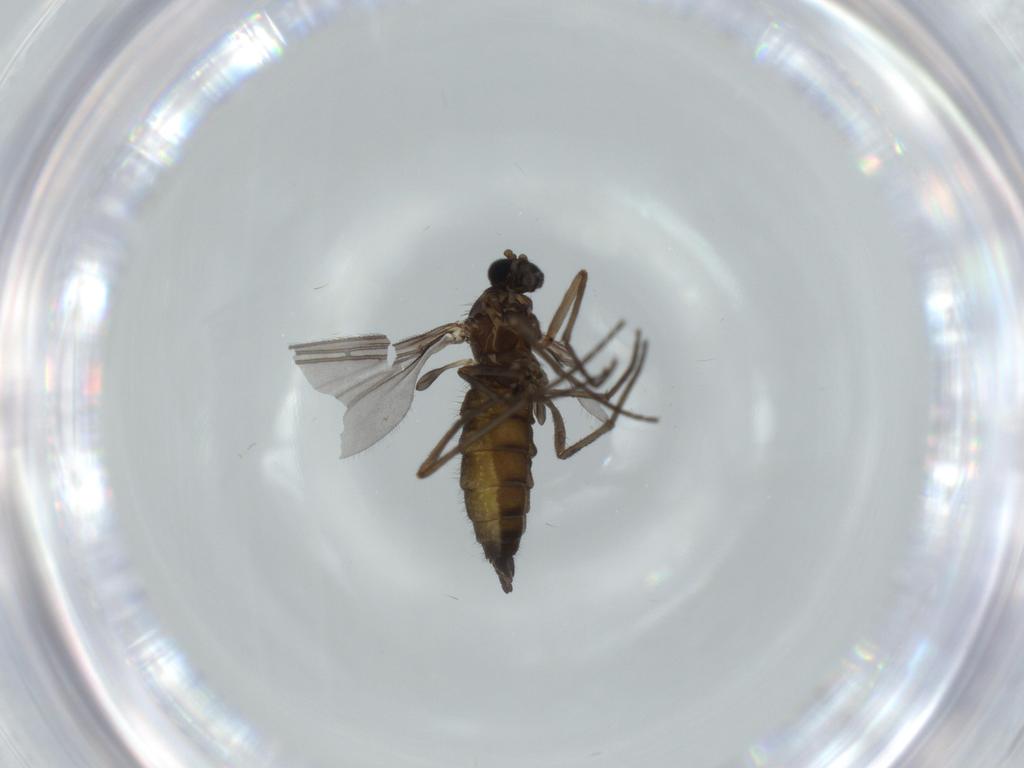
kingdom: Animalia
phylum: Arthropoda
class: Insecta
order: Diptera
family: Sciaridae
